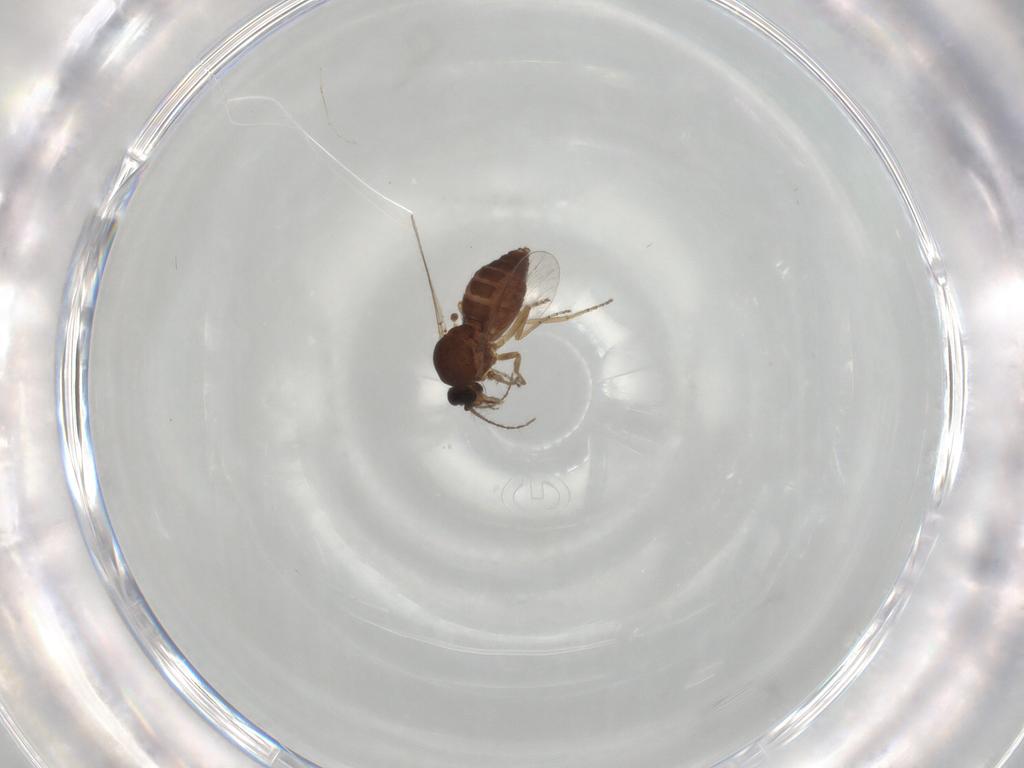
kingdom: Animalia
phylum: Arthropoda
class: Insecta
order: Diptera
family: Ceratopogonidae
